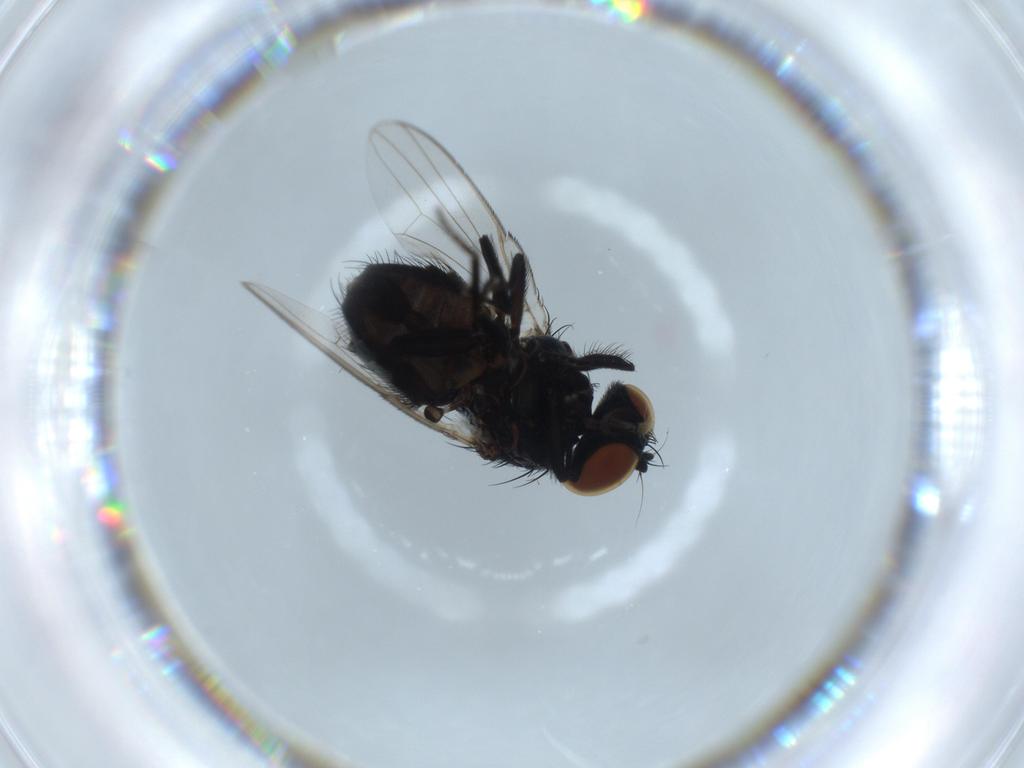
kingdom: Animalia
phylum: Arthropoda
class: Insecta
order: Diptera
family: Milichiidae
